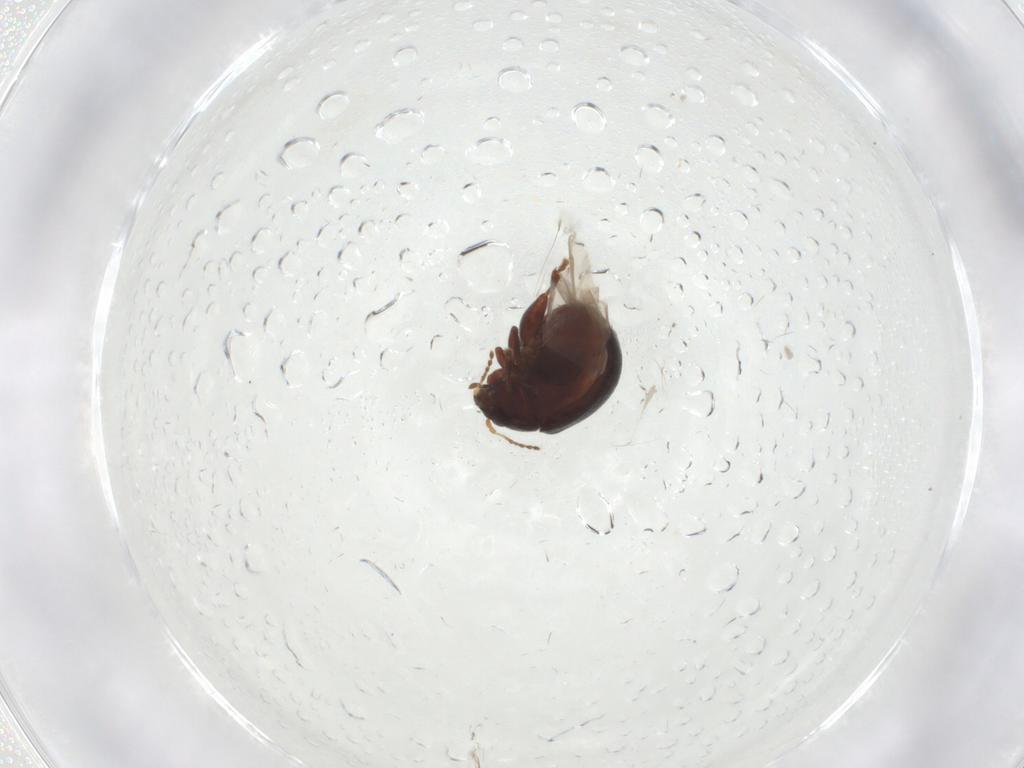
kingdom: Animalia
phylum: Arthropoda
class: Insecta
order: Coleoptera
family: Chrysomelidae
